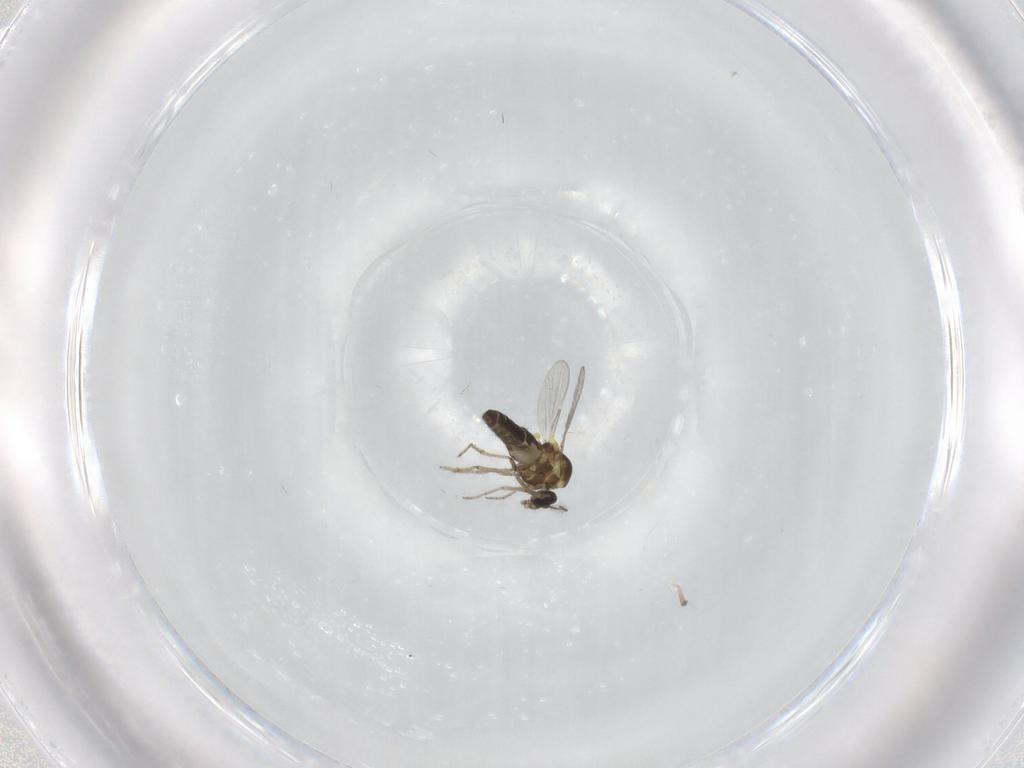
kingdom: Animalia
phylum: Arthropoda
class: Insecta
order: Diptera
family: Ceratopogonidae
